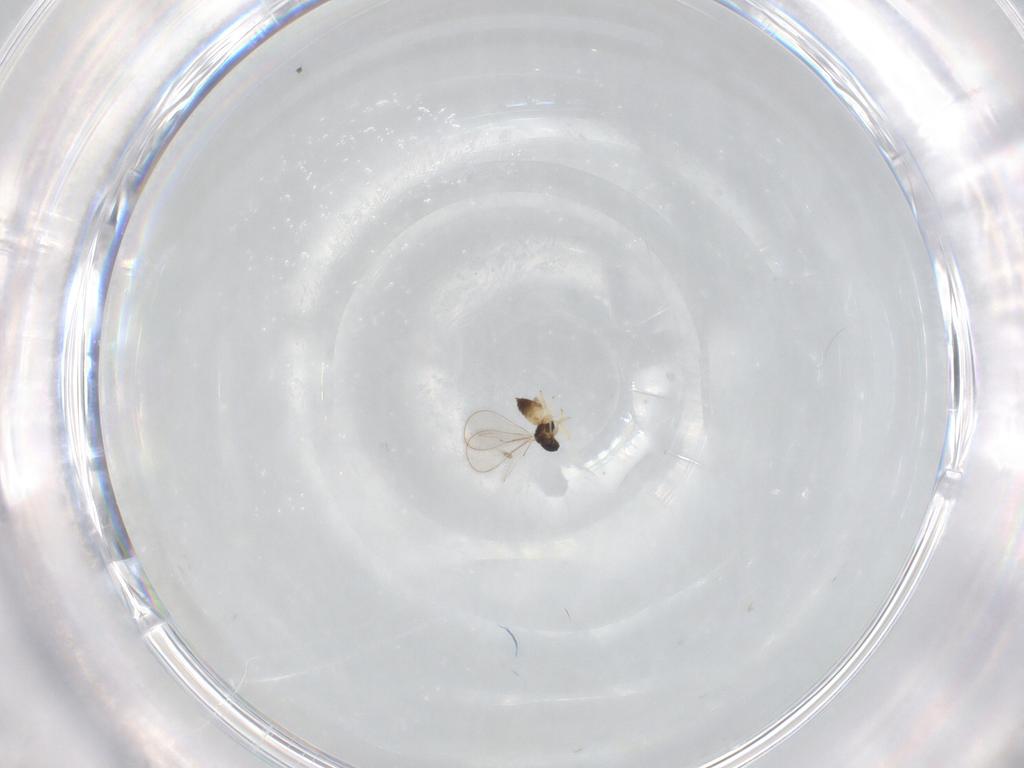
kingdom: Animalia
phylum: Arthropoda
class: Insecta
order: Hymenoptera
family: Eulophidae
